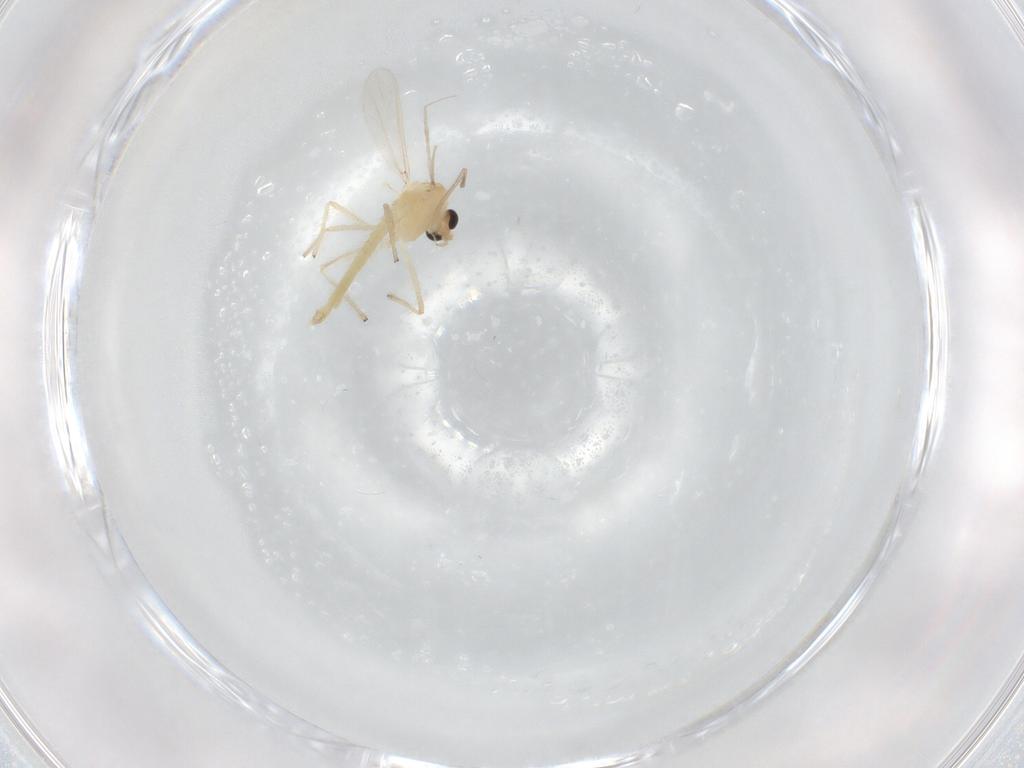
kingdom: Animalia
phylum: Arthropoda
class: Insecta
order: Diptera
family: Chironomidae
